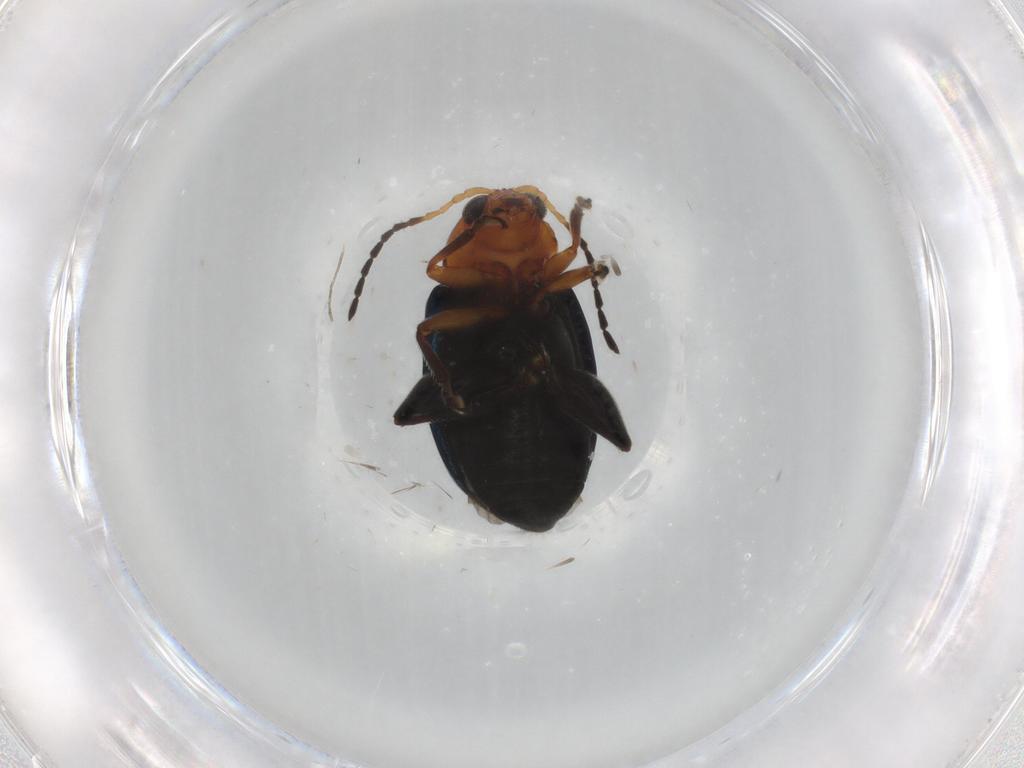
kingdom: Animalia
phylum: Arthropoda
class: Insecta
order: Coleoptera
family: Chrysomelidae
